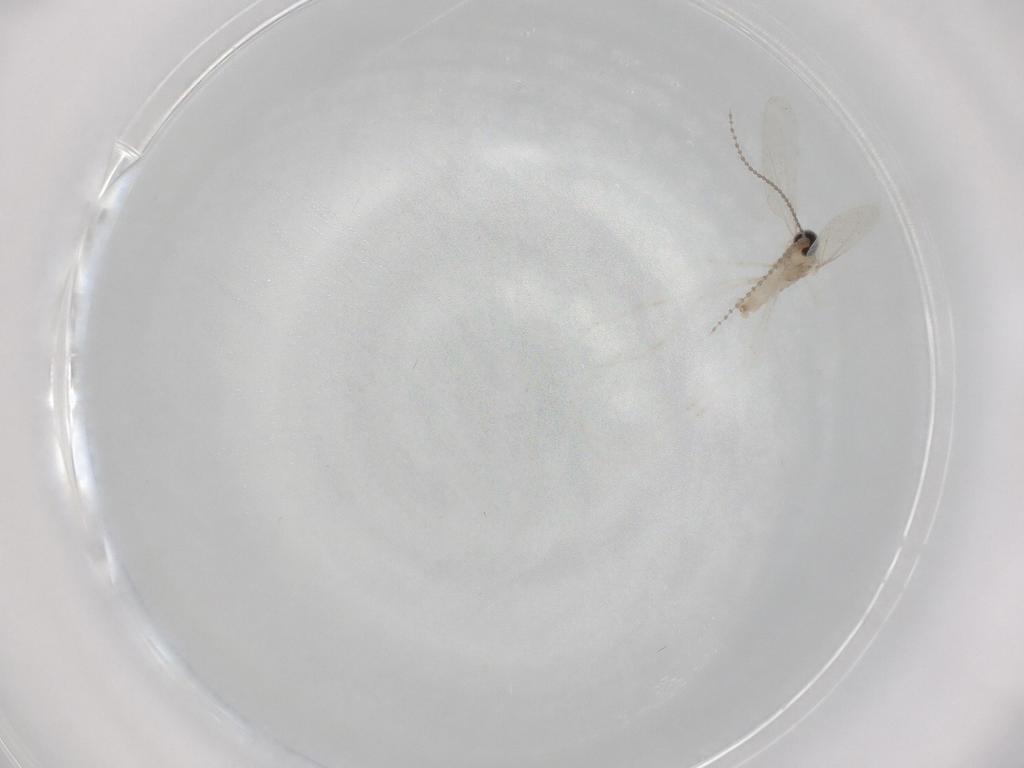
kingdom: Animalia
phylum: Arthropoda
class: Insecta
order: Diptera
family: Cecidomyiidae
